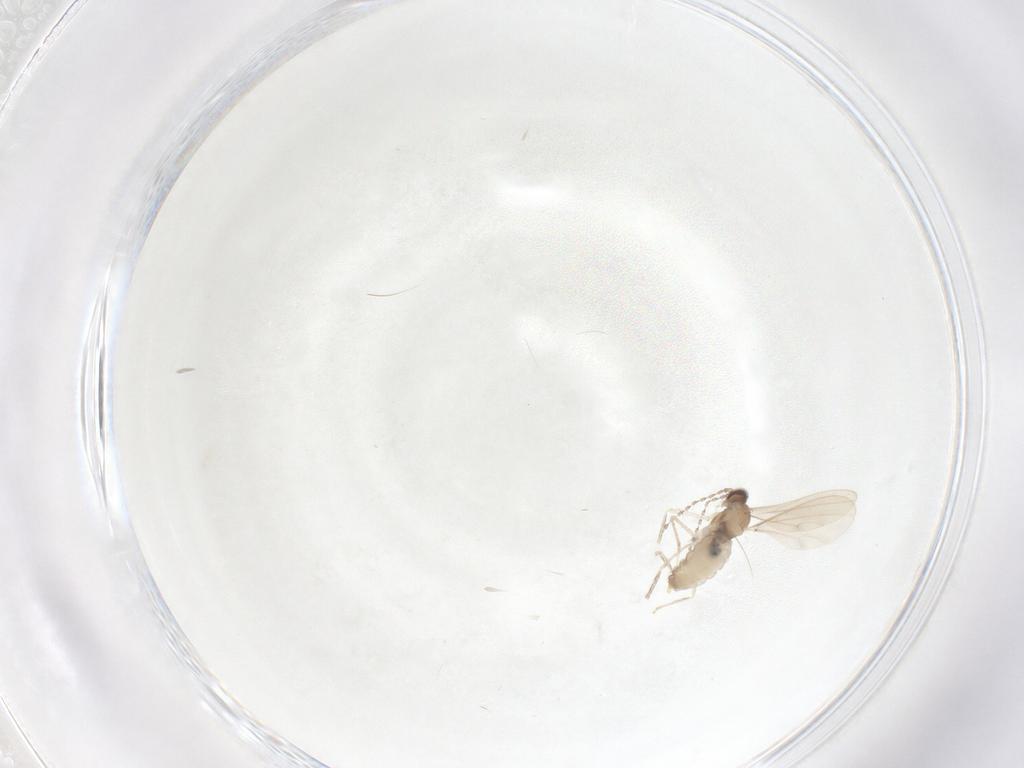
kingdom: Animalia
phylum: Arthropoda
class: Insecta
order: Diptera
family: Cecidomyiidae
